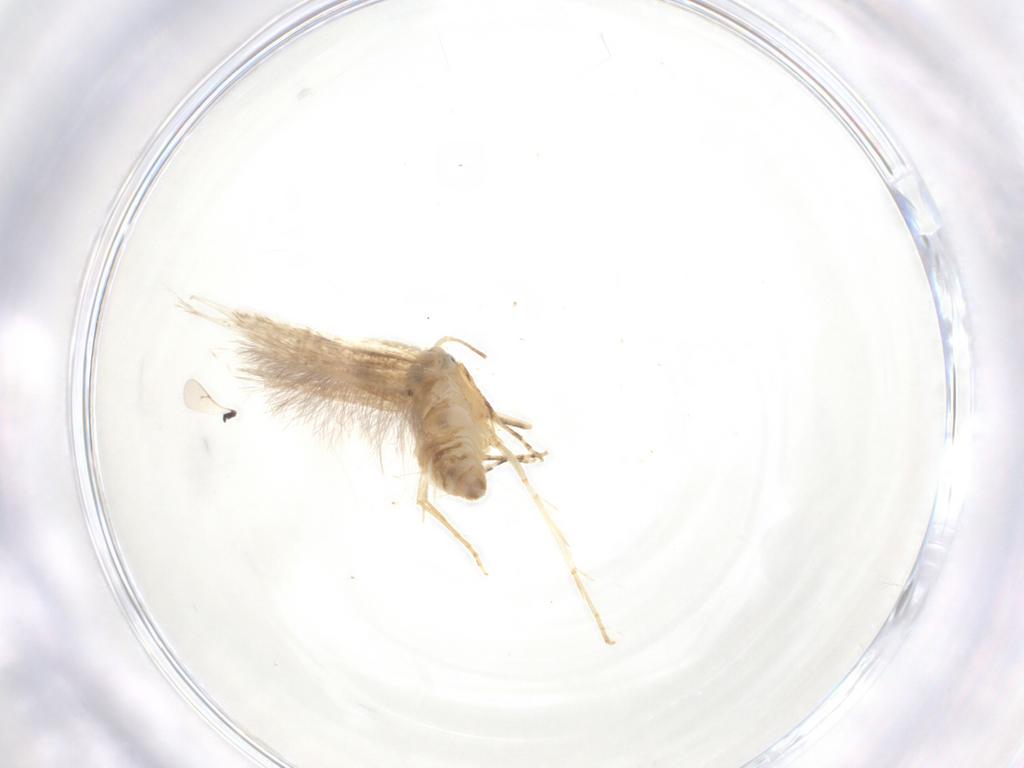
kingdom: Animalia
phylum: Arthropoda
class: Insecta
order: Lepidoptera
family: Bucculatricidae
